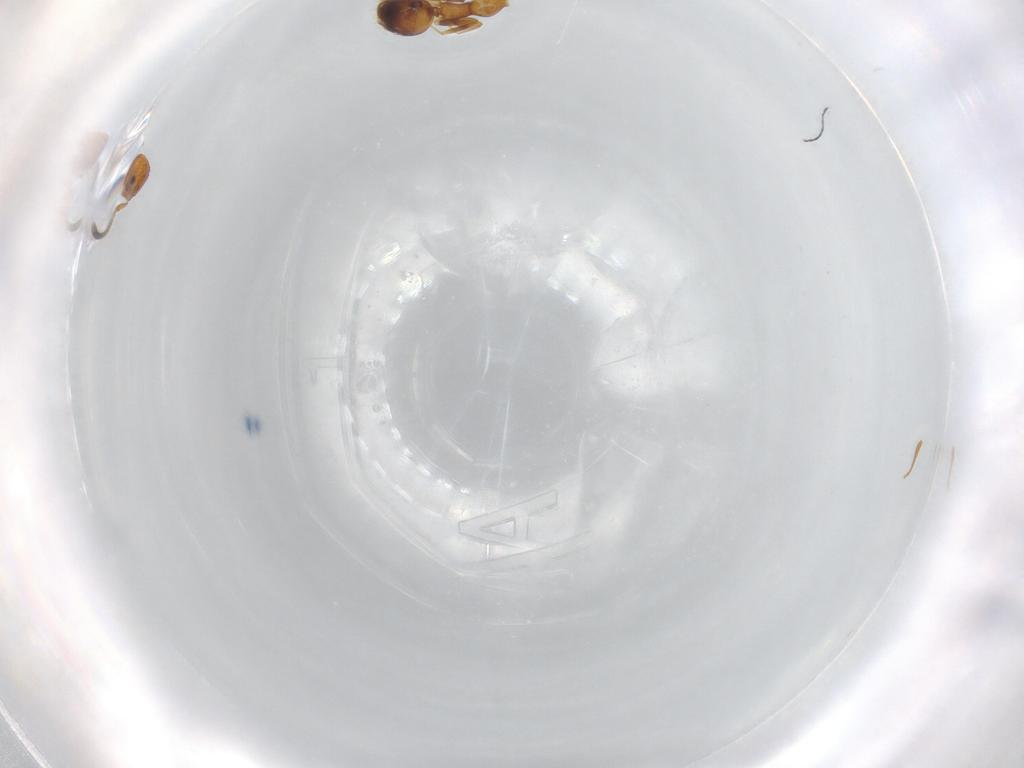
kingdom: Animalia
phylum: Arthropoda
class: Insecta
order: Hymenoptera
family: Formicidae
